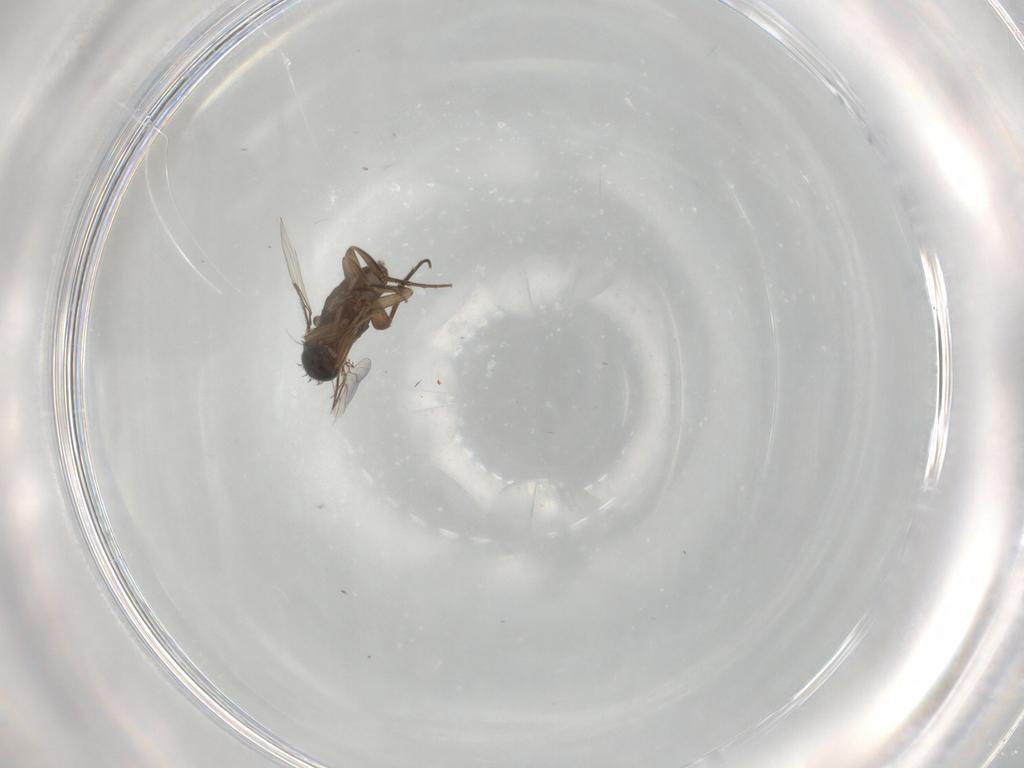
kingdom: Animalia
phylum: Arthropoda
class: Insecta
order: Diptera
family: Phoridae
